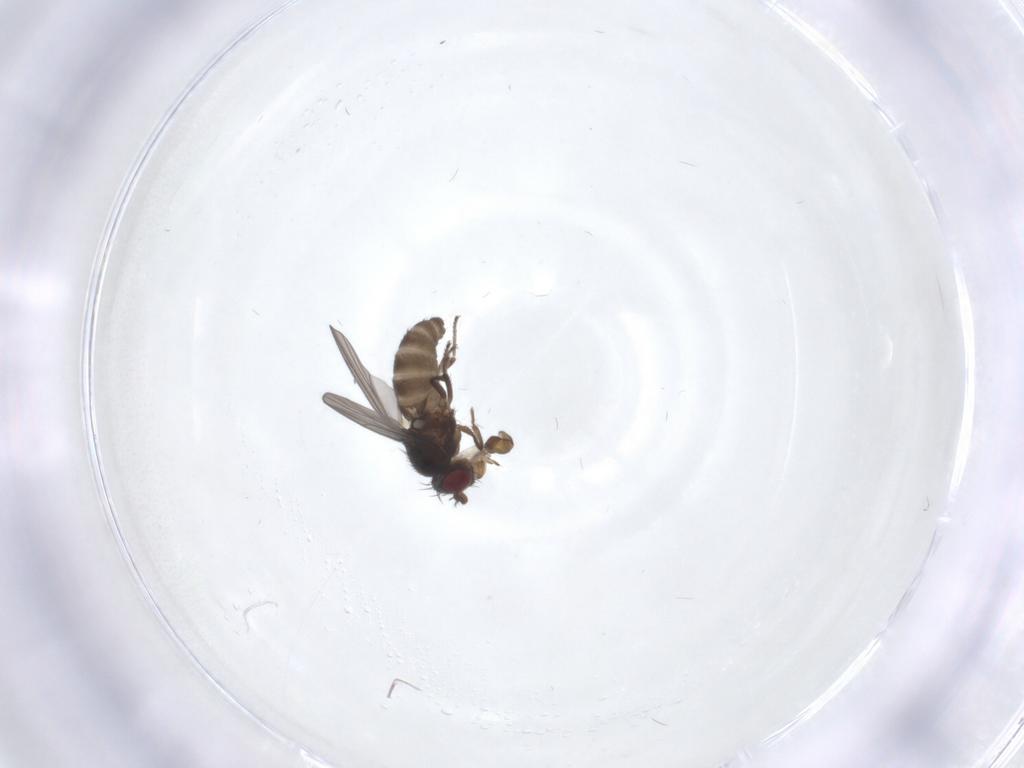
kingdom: Animalia
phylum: Arthropoda
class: Insecta
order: Diptera
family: Ephydridae
